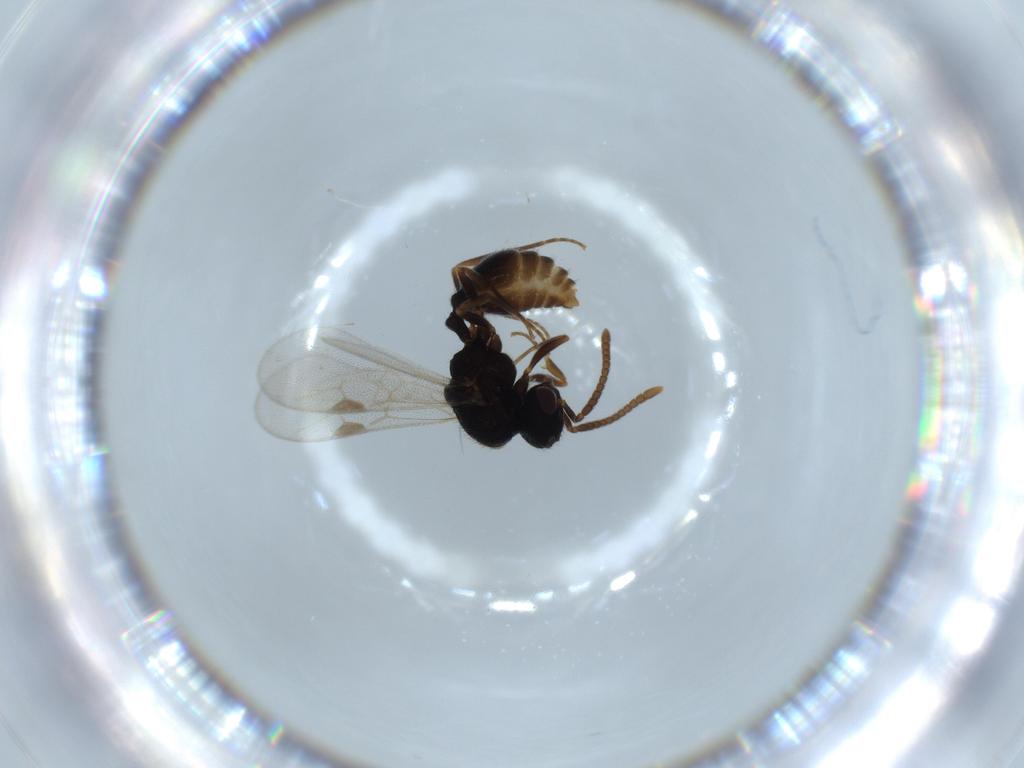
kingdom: Animalia
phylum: Arthropoda
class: Insecta
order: Hymenoptera
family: Formicidae
